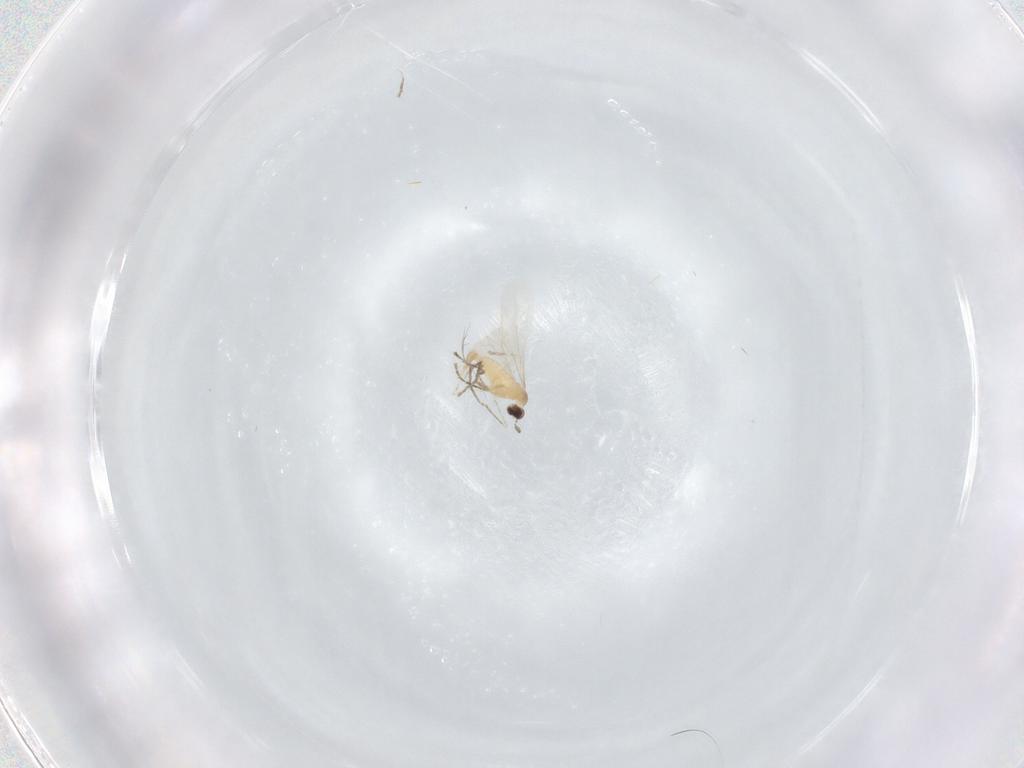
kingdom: Animalia
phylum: Arthropoda
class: Insecta
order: Diptera
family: Cecidomyiidae
